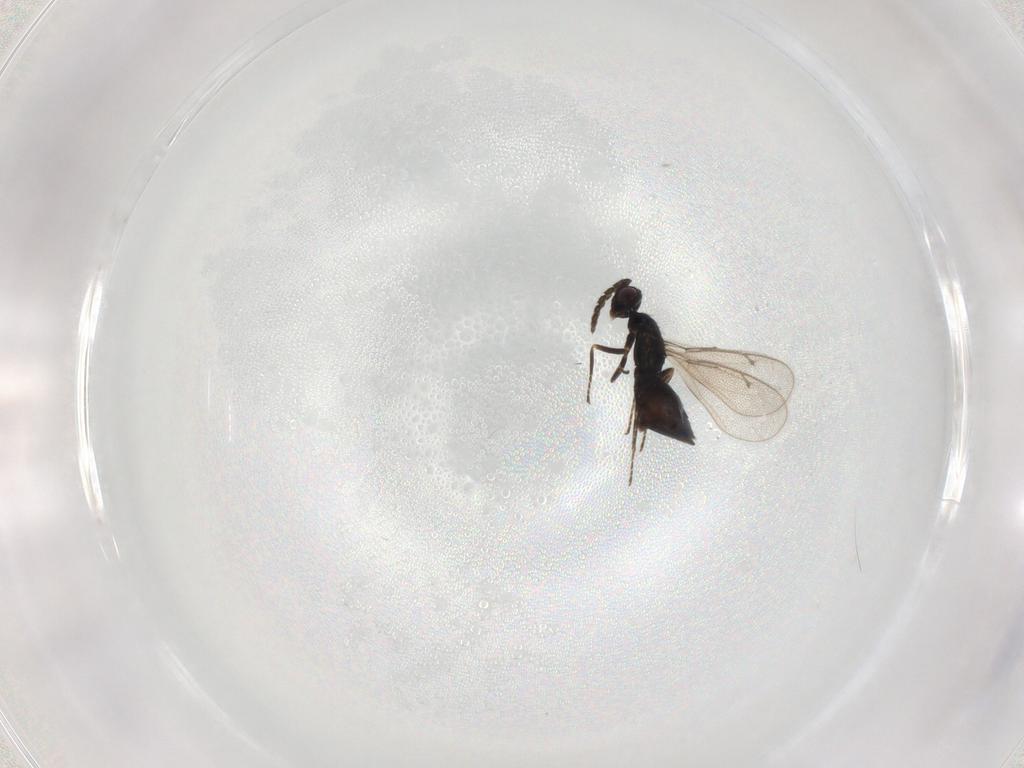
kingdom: Animalia
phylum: Arthropoda
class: Insecta
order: Hymenoptera
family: Eulophidae
